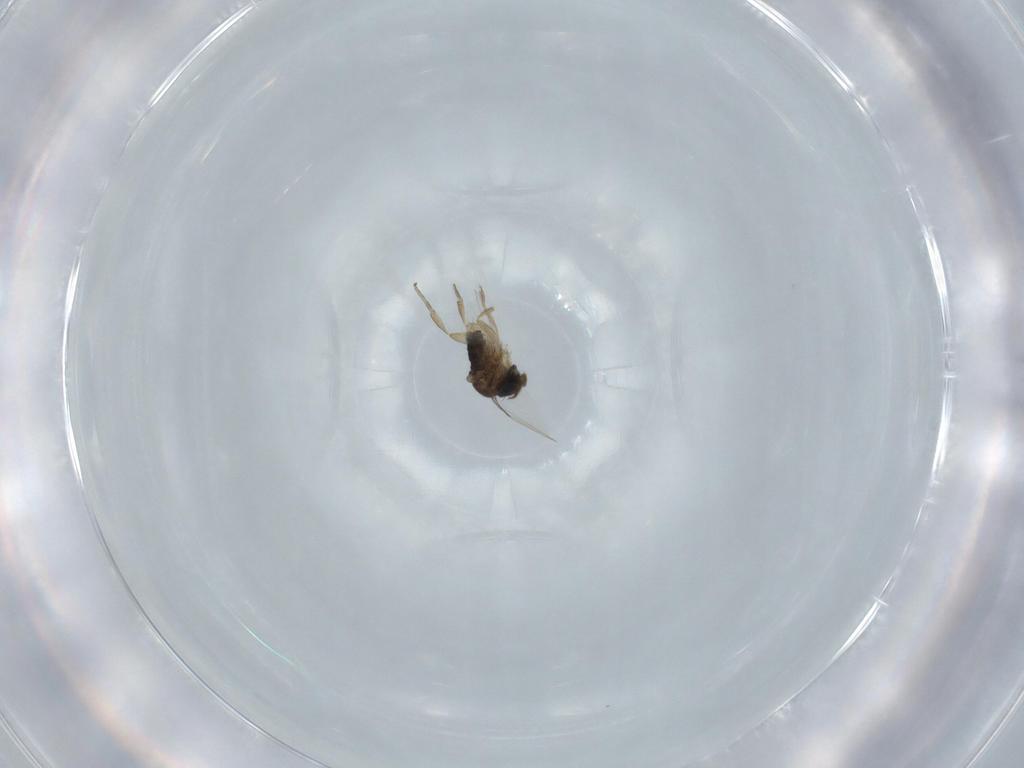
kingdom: Animalia
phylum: Arthropoda
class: Insecta
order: Diptera
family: Phoridae
